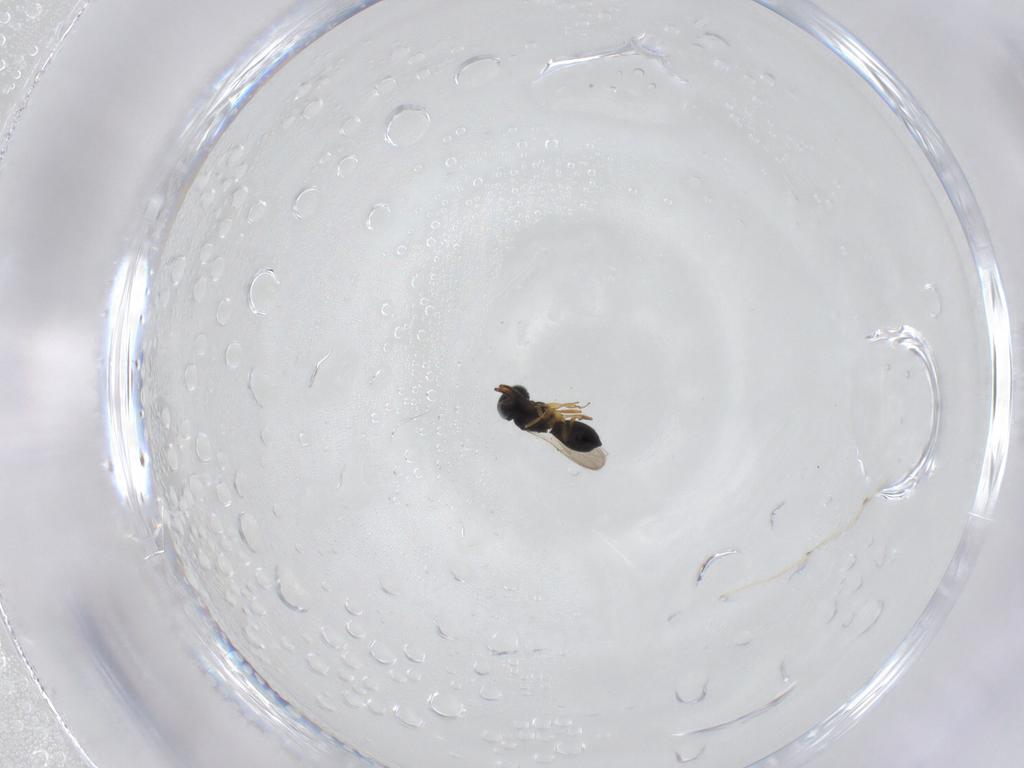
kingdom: Animalia
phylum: Arthropoda
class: Insecta
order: Hymenoptera
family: Scelionidae
